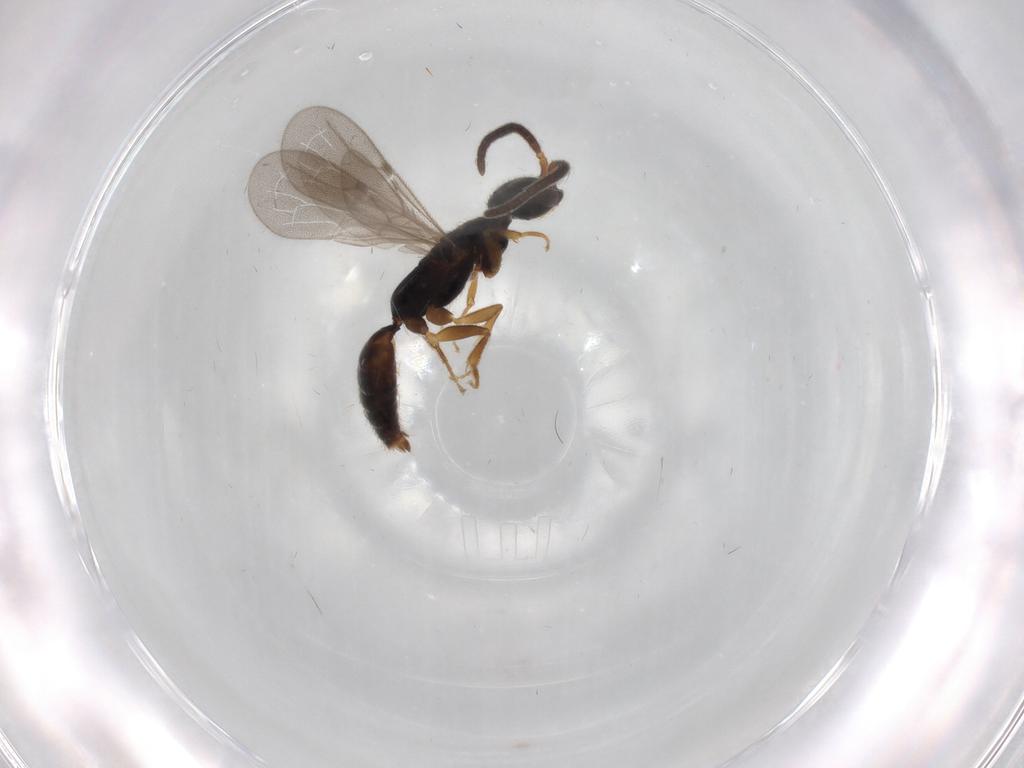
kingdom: Animalia
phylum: Arthropoda
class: Insecta
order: Hymenoptera
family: Bethylidae
